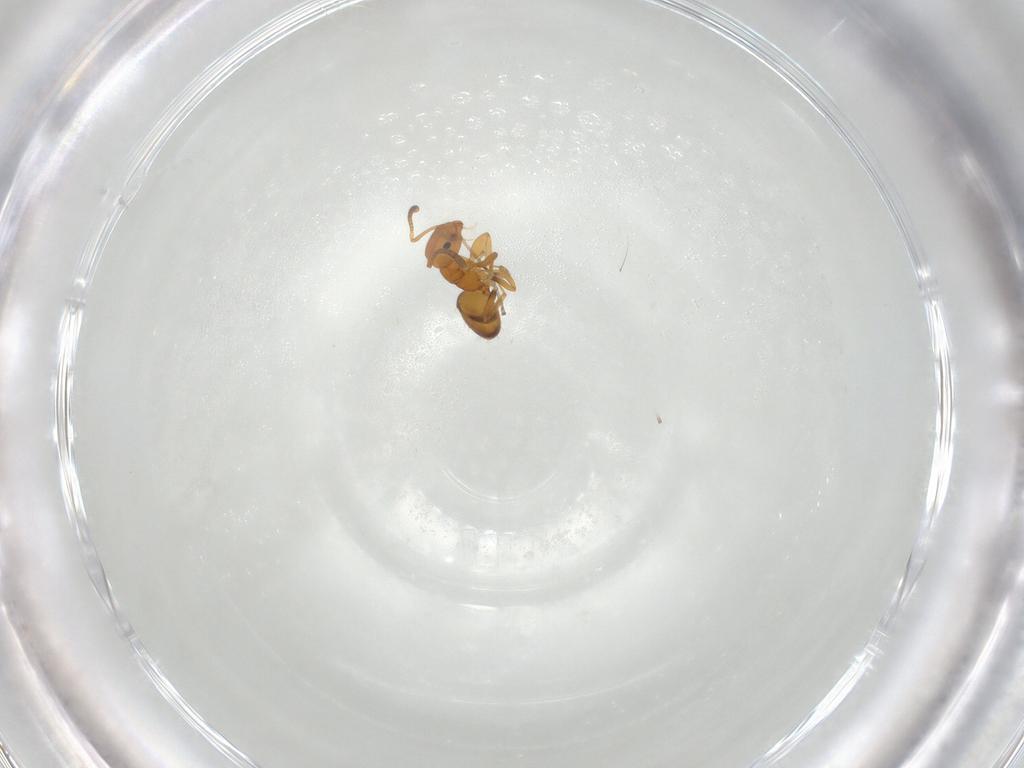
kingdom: Animalia
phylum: Arthropoda
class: Insecta
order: Hymenoptera
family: Formicidae
